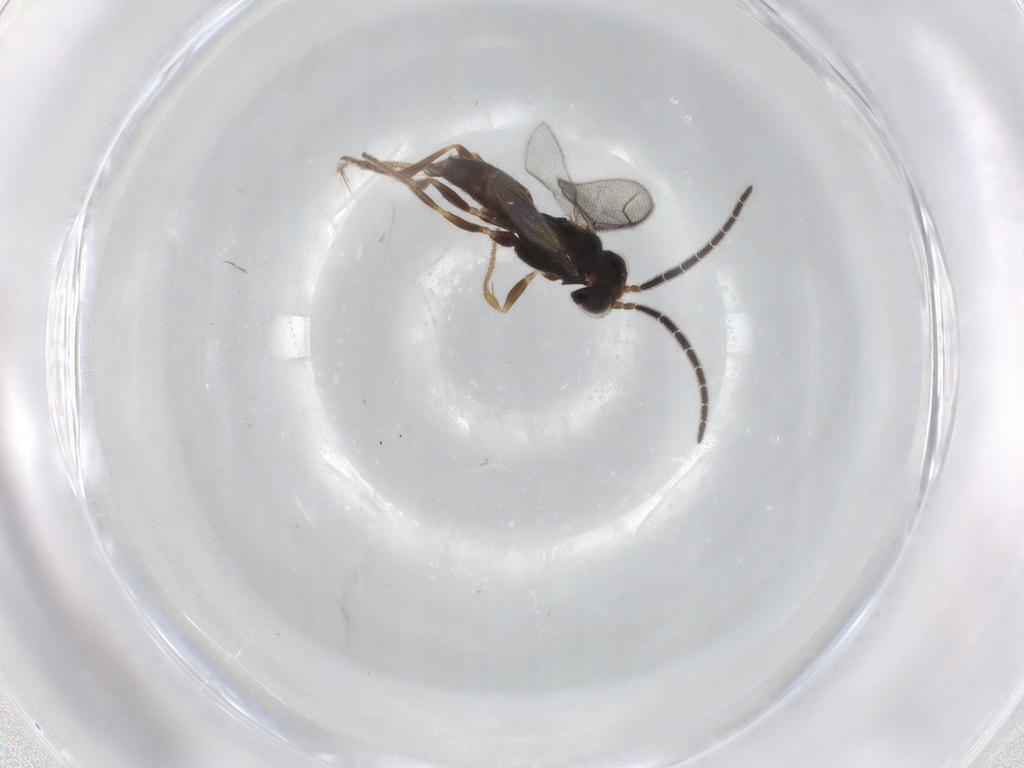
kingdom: Animalia
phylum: Arthropoda
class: Insecta
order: Hymenoptera
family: Dryinidae
